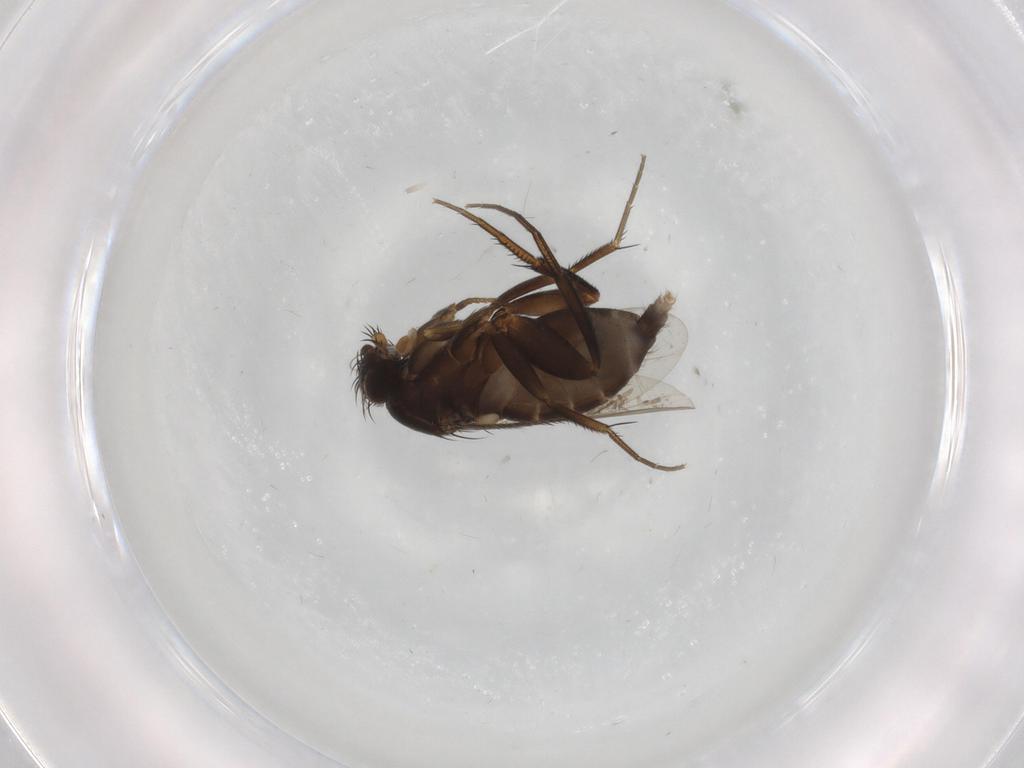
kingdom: Animalia
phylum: Arthropoda
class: Insecta
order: Diptera
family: Phoridae
